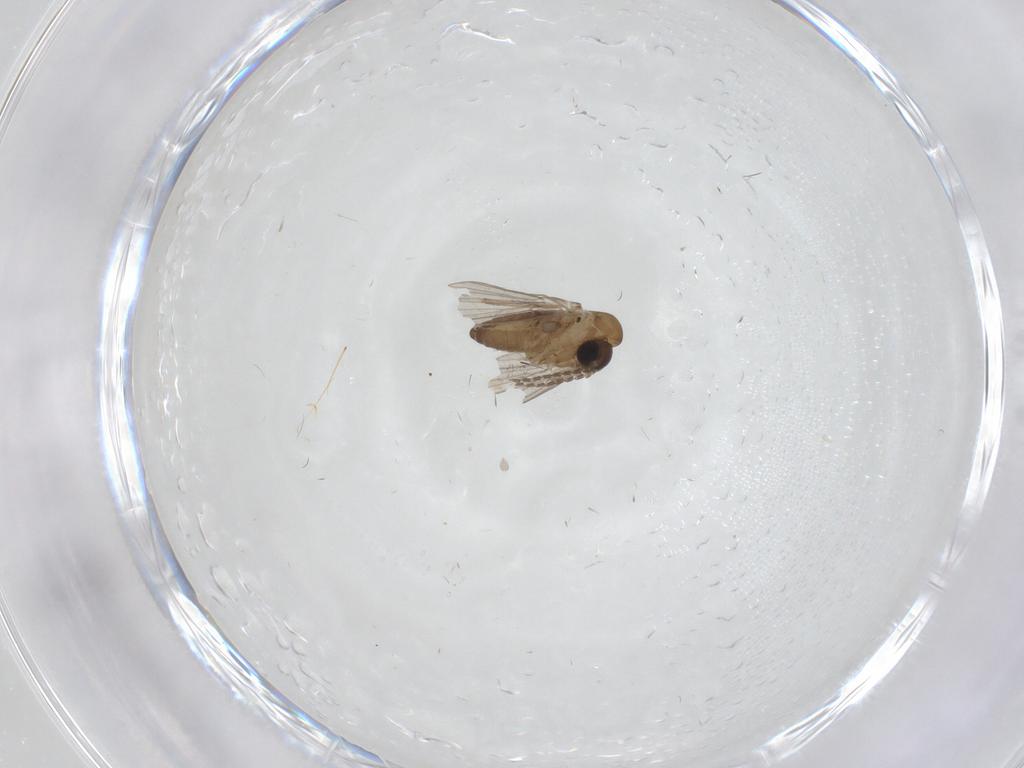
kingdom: Animalia
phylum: Arthropoda
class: Insecta
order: Diptera
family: Sciaridae
